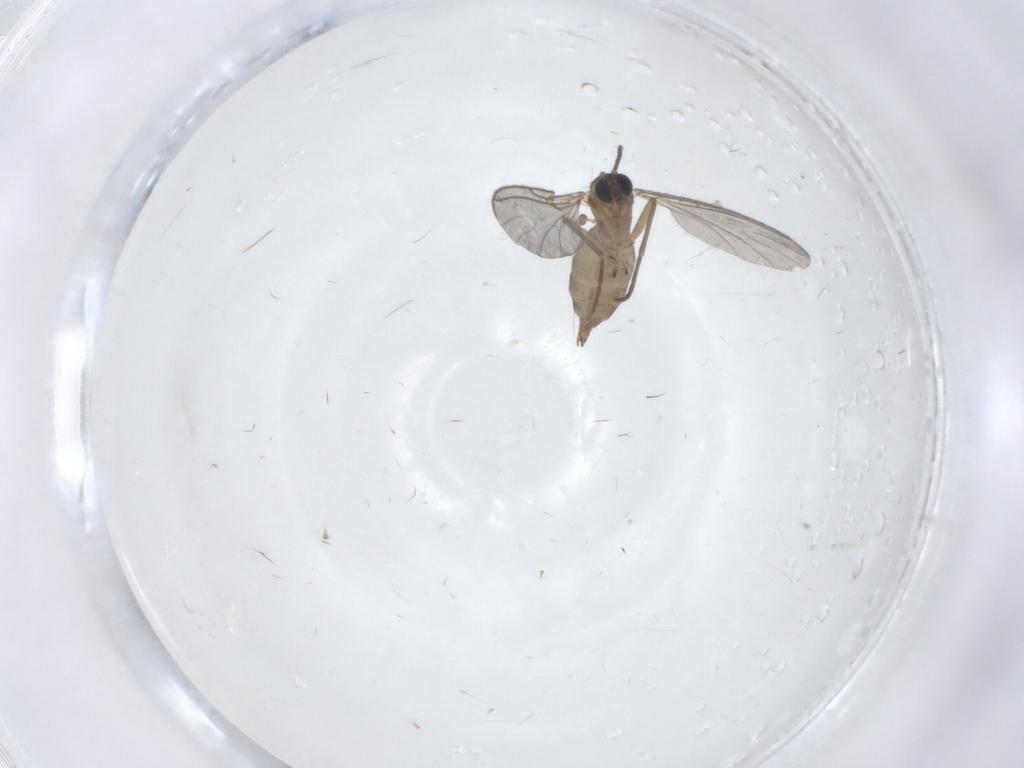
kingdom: Animalia
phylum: Arthropoda
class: Insecta
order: Diptera
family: Sciaridae
